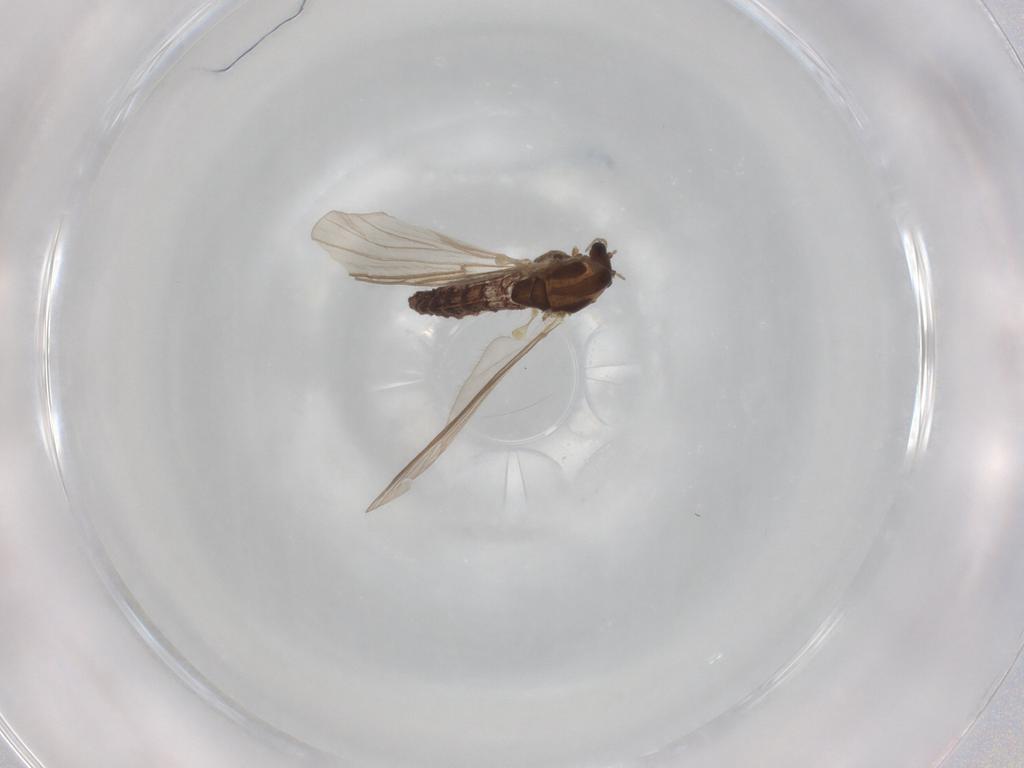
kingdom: Animalia
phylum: Arthropoda
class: Insecta
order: Diptera
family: Chironomidae
